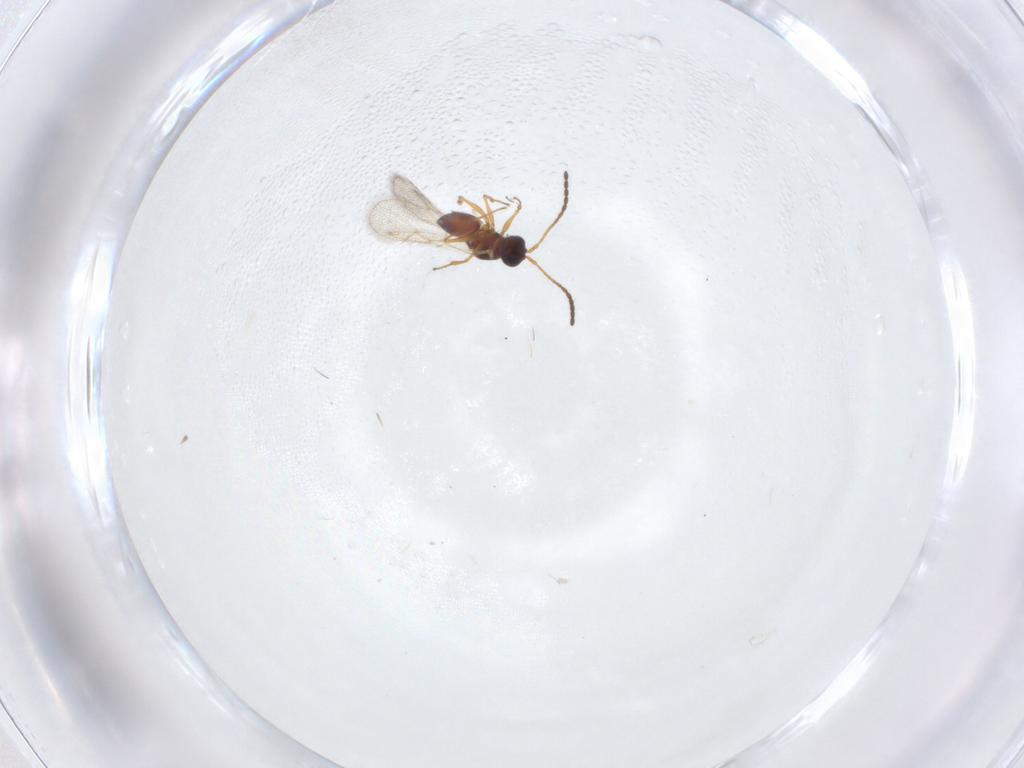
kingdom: Animalia
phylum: Arthropoda
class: Insecta
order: Hymenoptera
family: Figitidae
